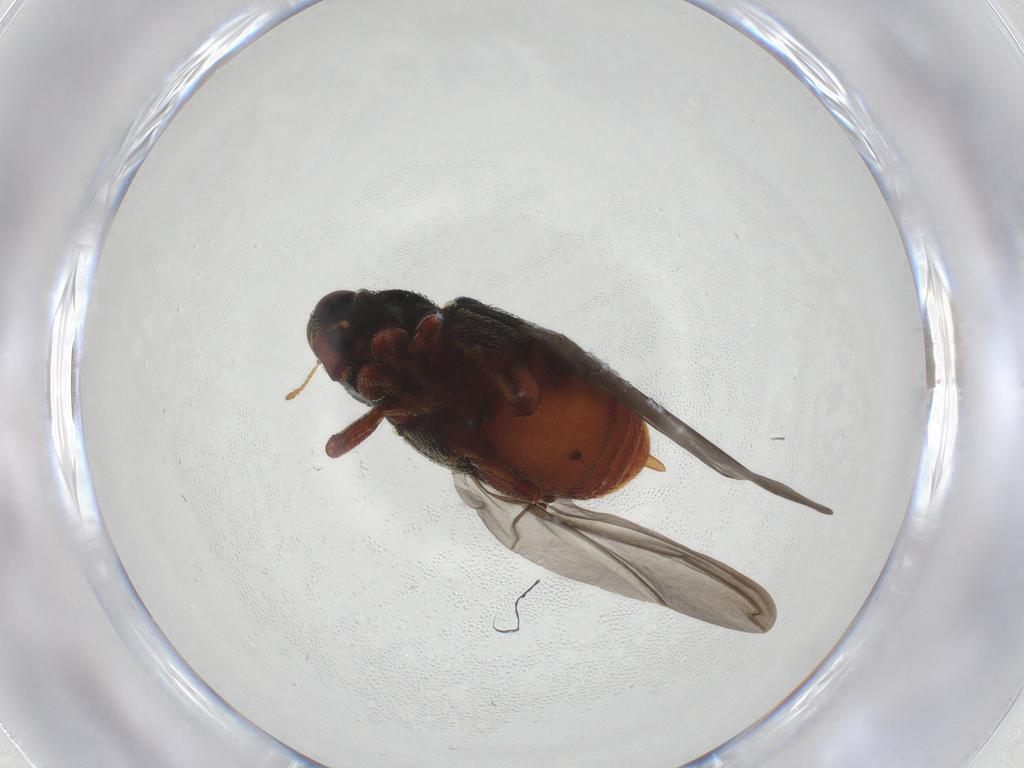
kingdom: Animalia
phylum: Arthropoda
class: Insecta
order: Coleoptera
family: Curculionidae
